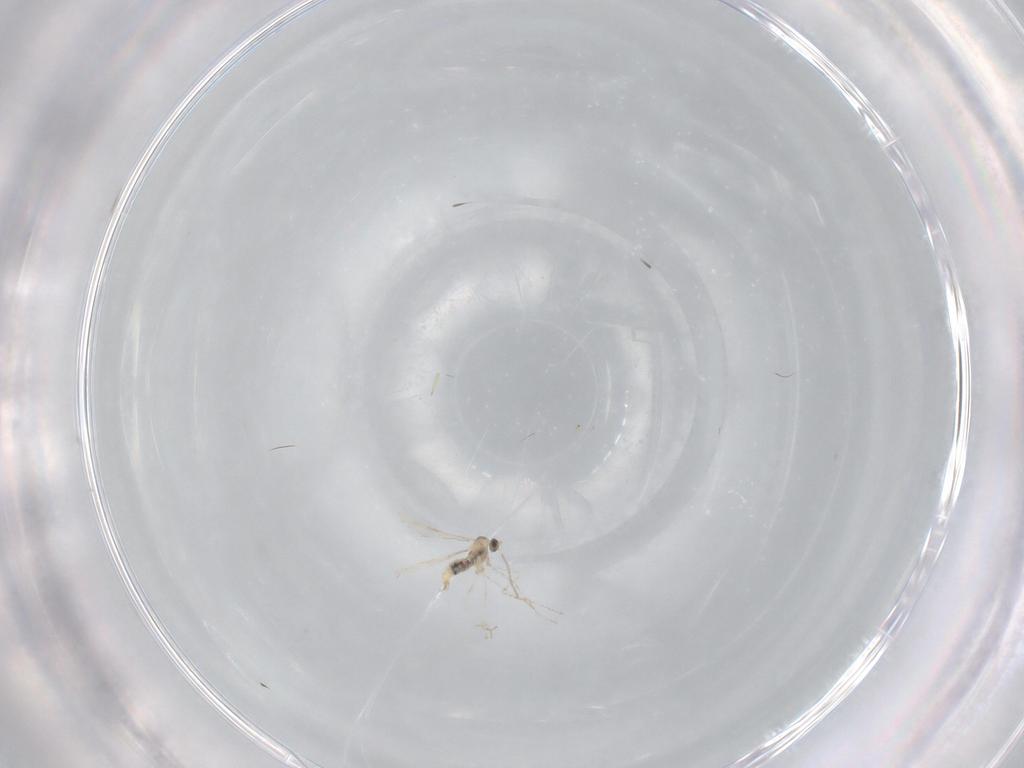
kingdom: Animalia
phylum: Arthropoda
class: Insecta
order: Diptera
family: Cecidomyiidae
